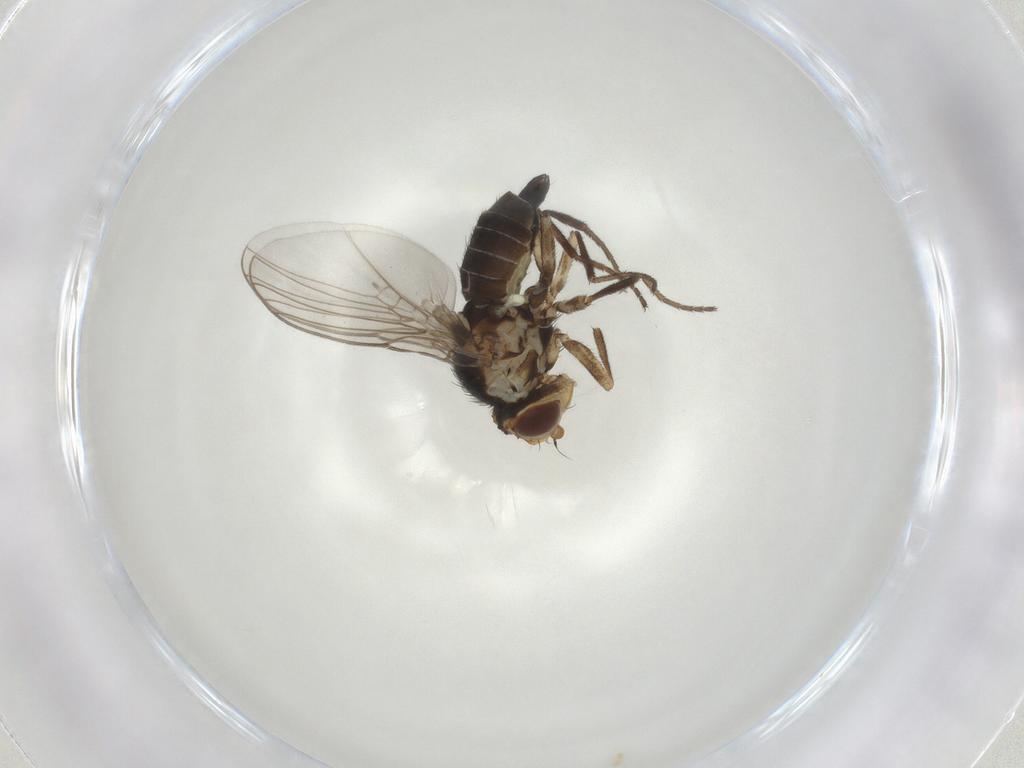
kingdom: Animalia
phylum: Arthropoda
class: Insecta
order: Diptera
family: Agromyzidae
